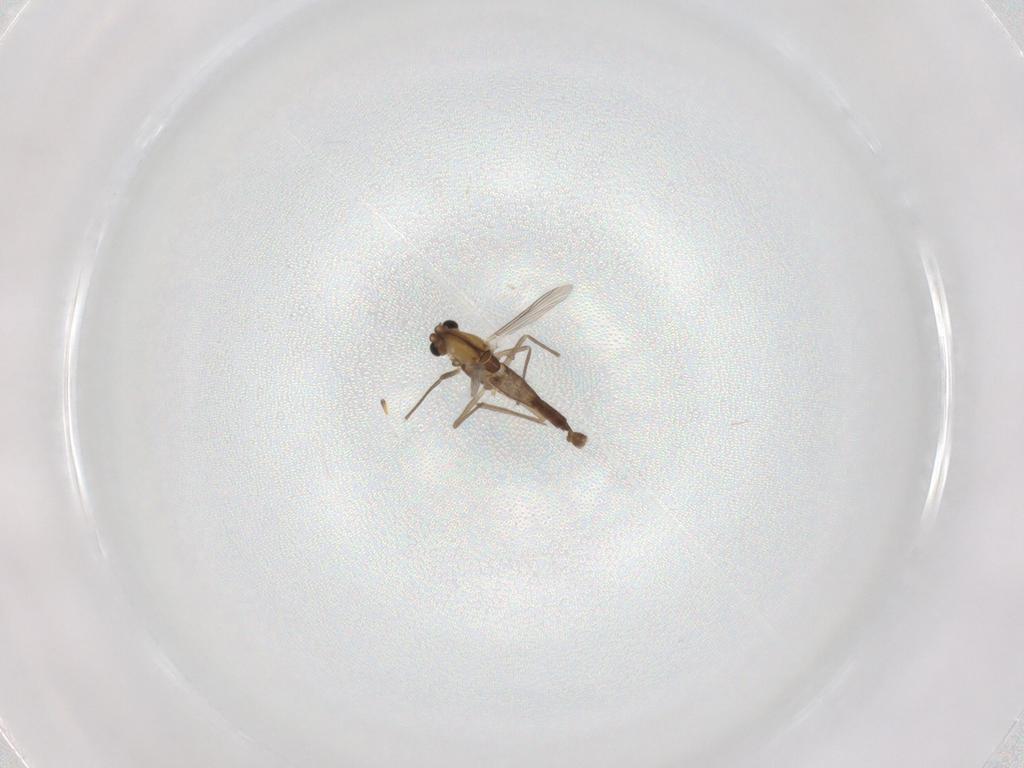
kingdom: Animalia
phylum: Arthropoda
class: Insecta
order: Diptera
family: Chironomidae
